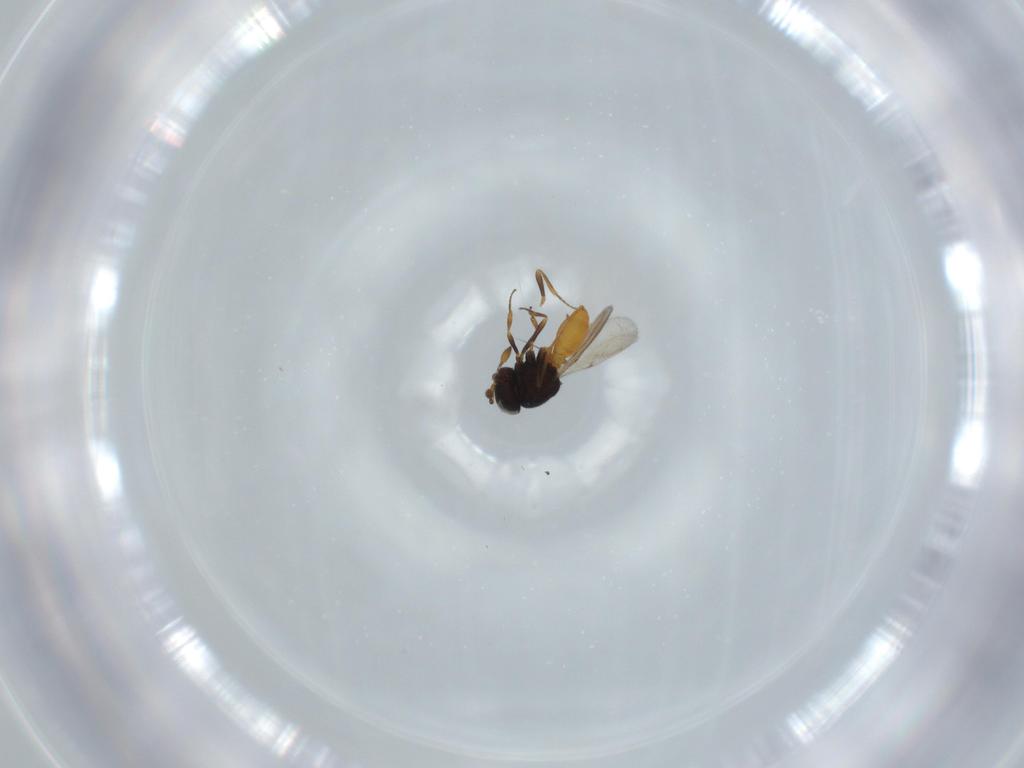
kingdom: Animalia
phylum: Arthropoda
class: Insecta
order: Hymenoptera
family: Scelionidae
